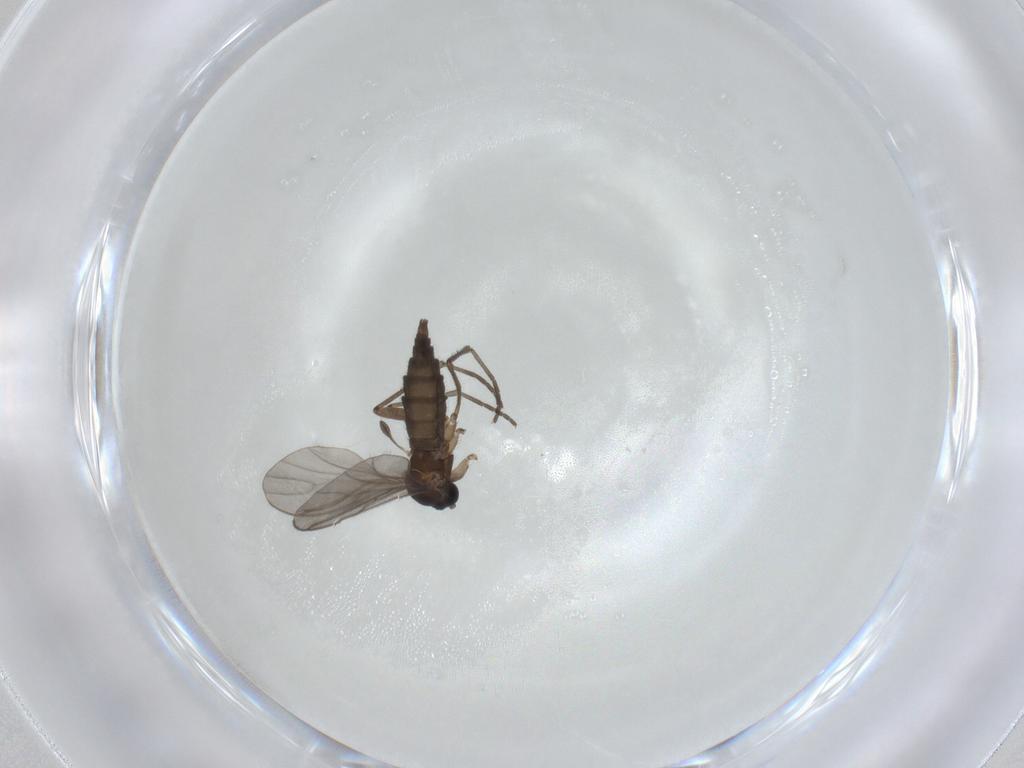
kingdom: Animalia
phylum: Arthropoda
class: Insecta
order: Diptera
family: Sciaridae
